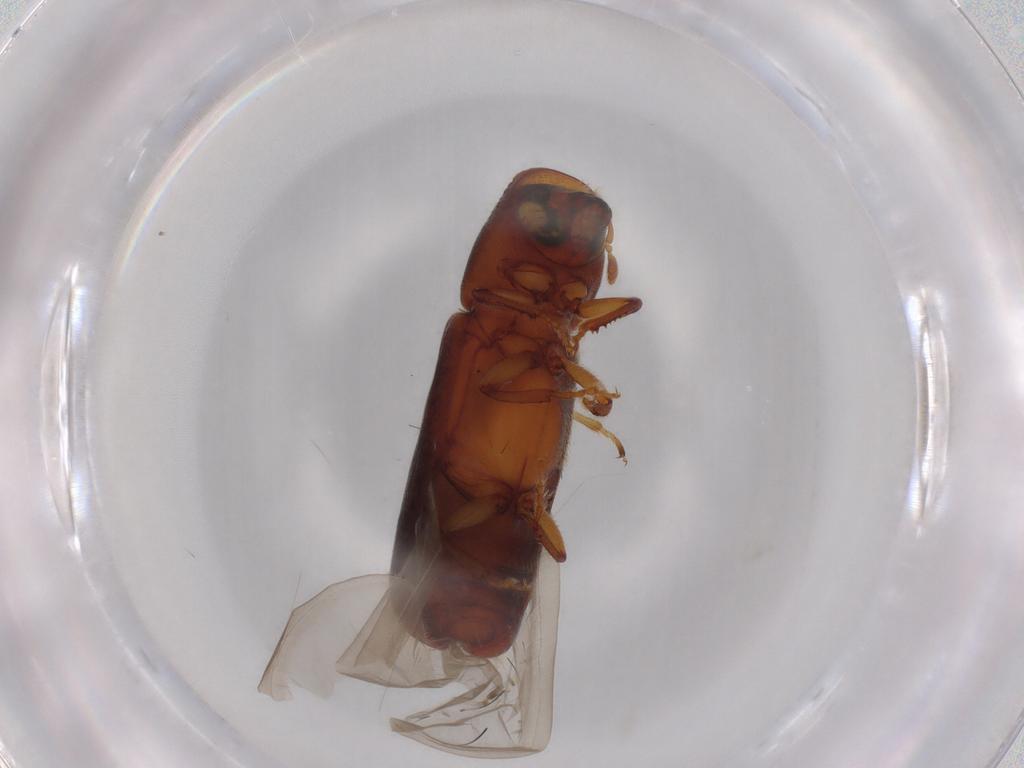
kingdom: Animalia
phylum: Arthropoda
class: Insecta
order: Coleoptera
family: Curculionidae
